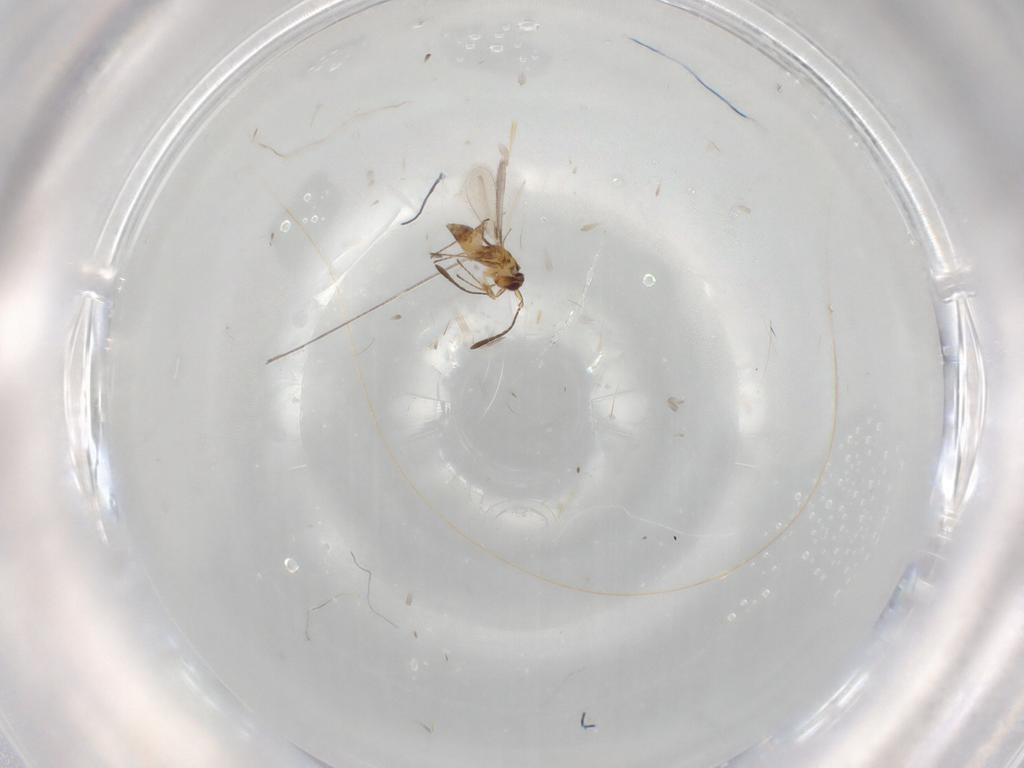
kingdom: Animalia
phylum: Arthropoda
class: Insecta
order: Hymenoptera
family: Mymaridae
